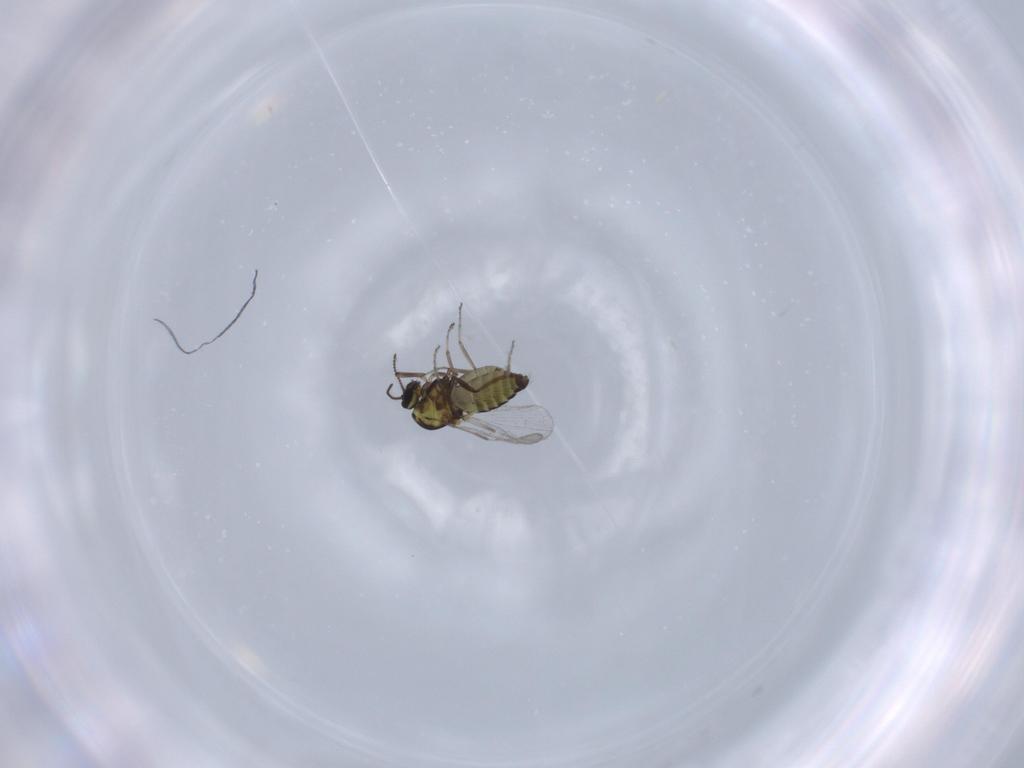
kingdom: Animalia
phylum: Arthropoda
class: Insecta
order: Diptera
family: Ceratopogonidae
